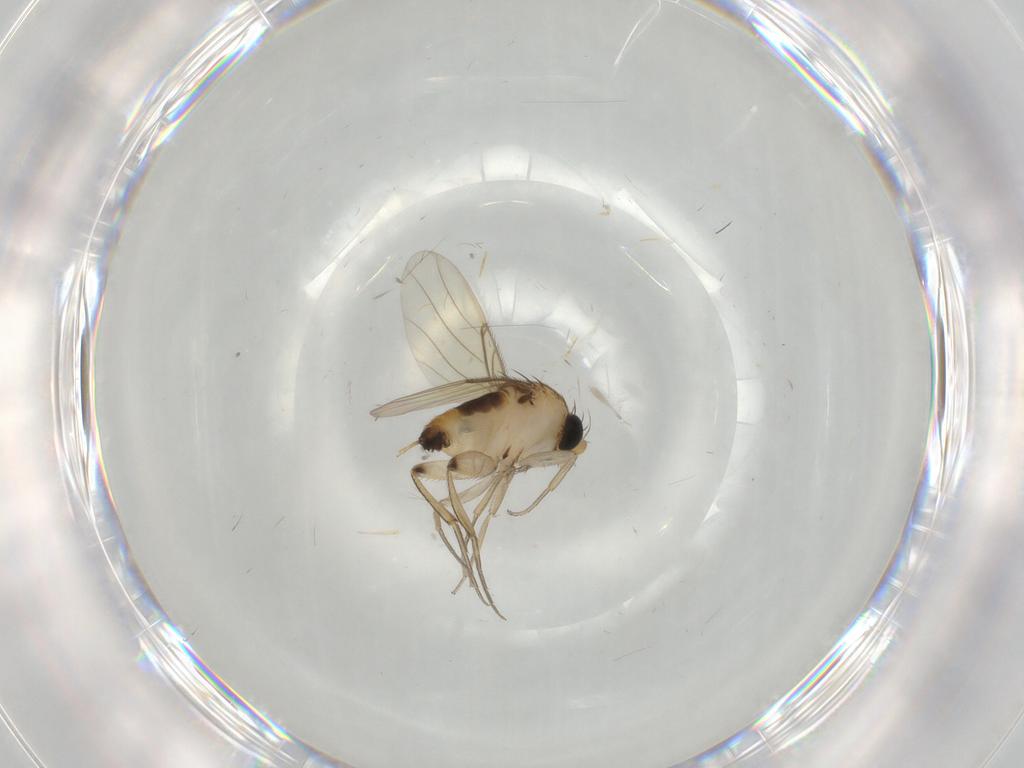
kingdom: Animalia
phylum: Arthropoda
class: Insecta
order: Diptera
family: Phoridae
